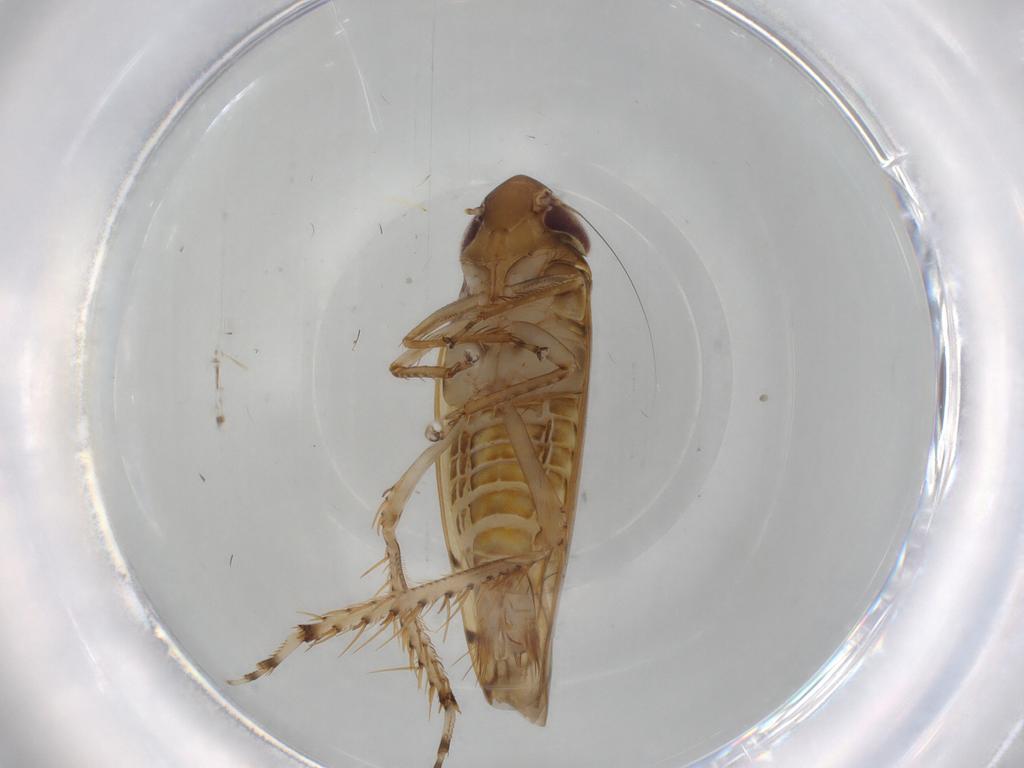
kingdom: Animalia
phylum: Arthropoda
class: Insecta
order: Hemiptera
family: Cicadellidae
